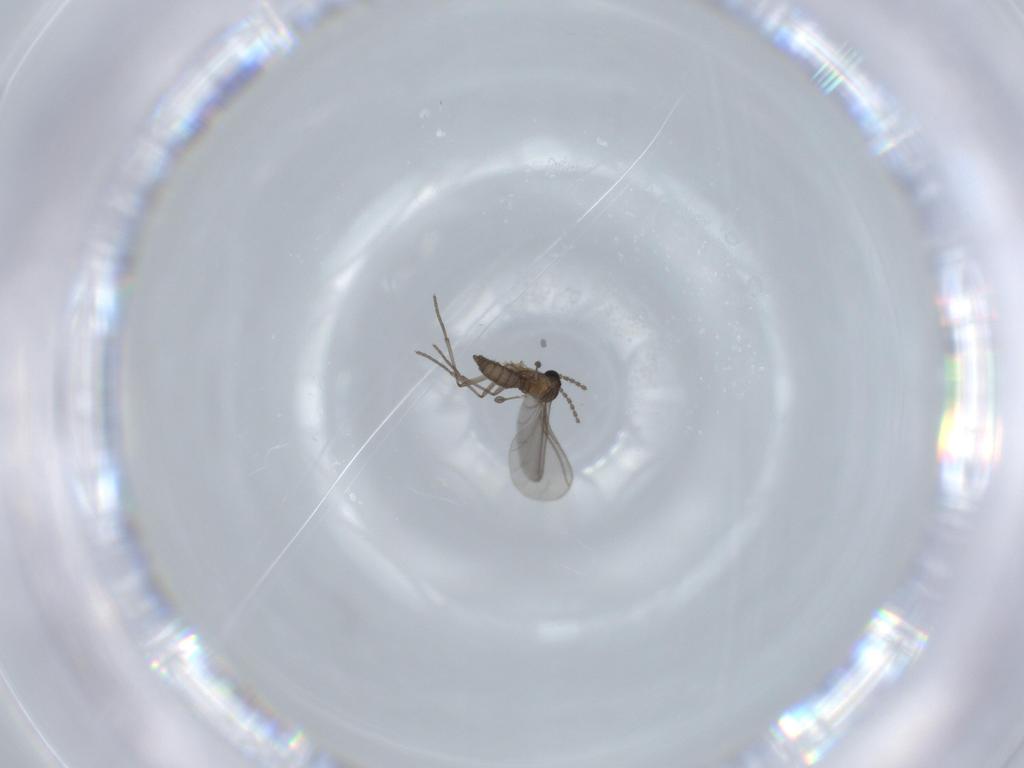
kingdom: Animalia
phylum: Arthropoda
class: Insecta
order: Diptera
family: Sciaridae
